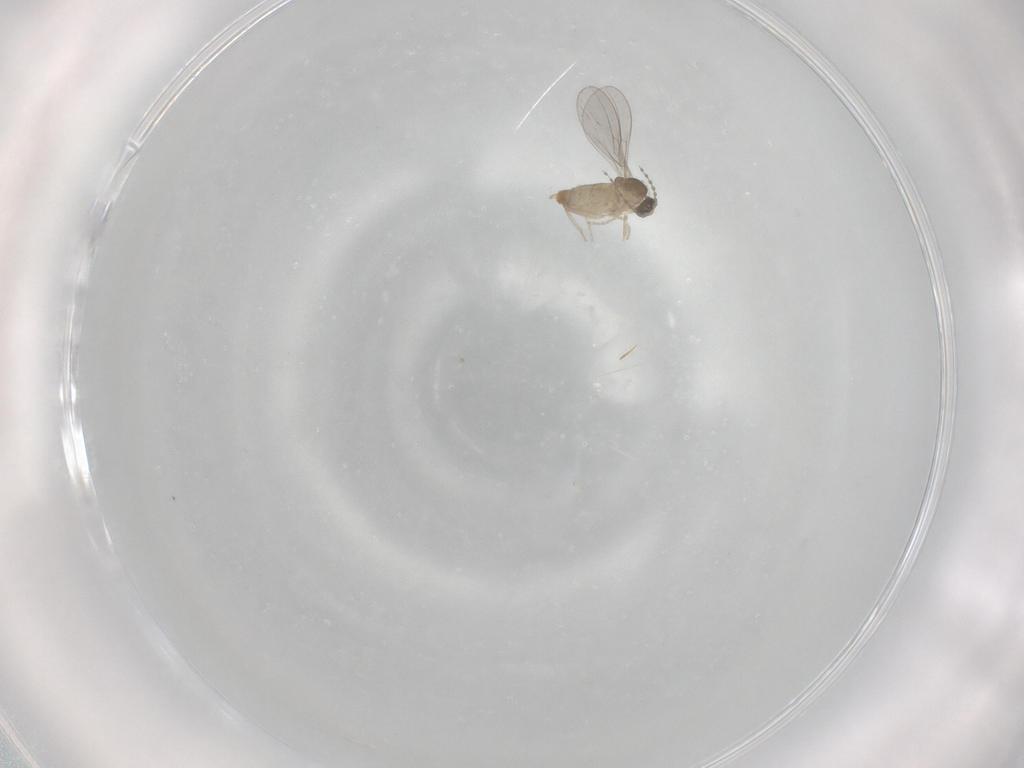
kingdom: Animalia
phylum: Arthropoda
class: Insecta
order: Diptera
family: Cecidomyiidae
